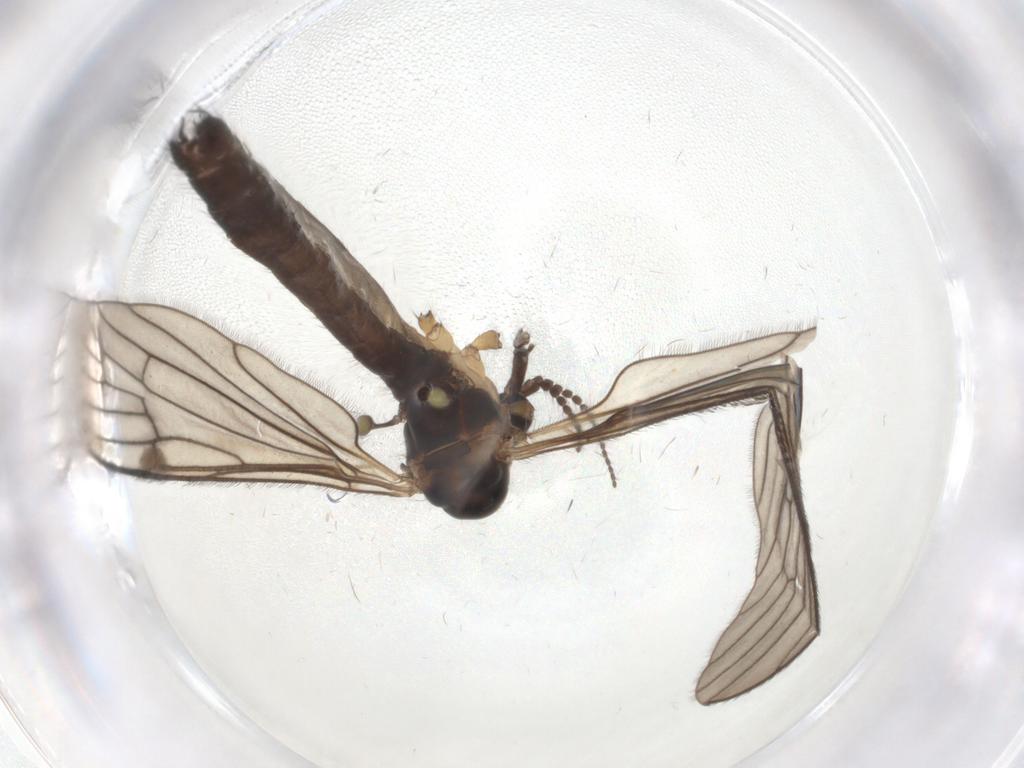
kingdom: Animalia
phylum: Arthropoda
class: Insecta
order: Diptera
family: Limoniidae
